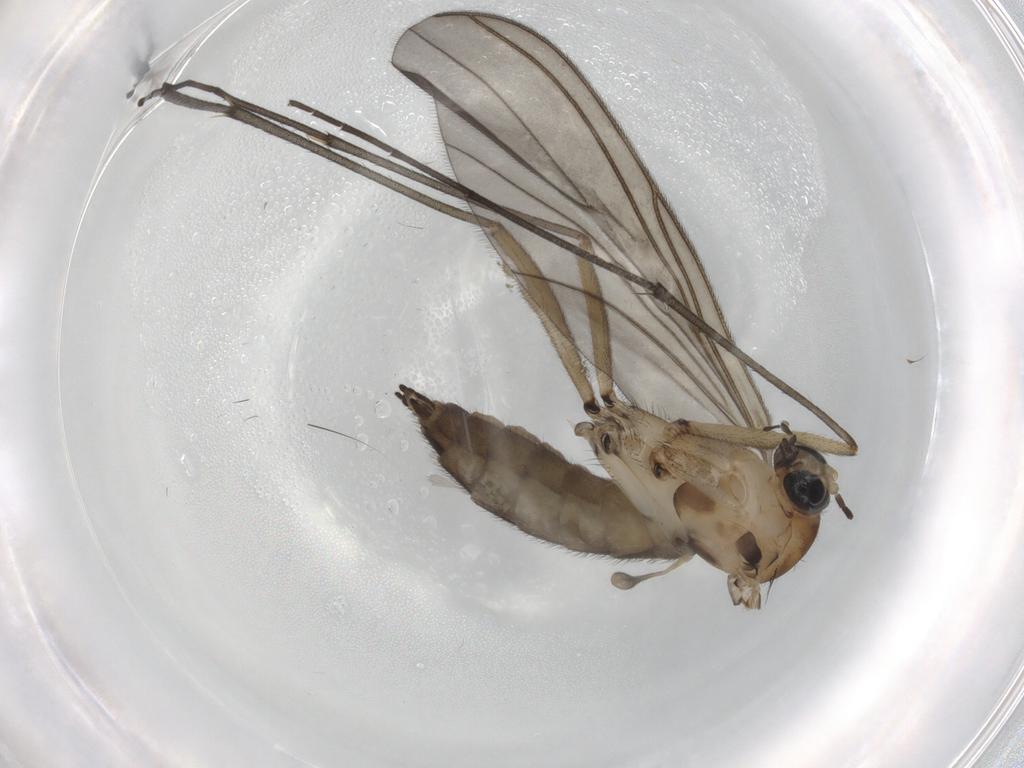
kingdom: Animalia
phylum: Arthropoda
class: Insecta
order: Diptera
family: Sciaridae
